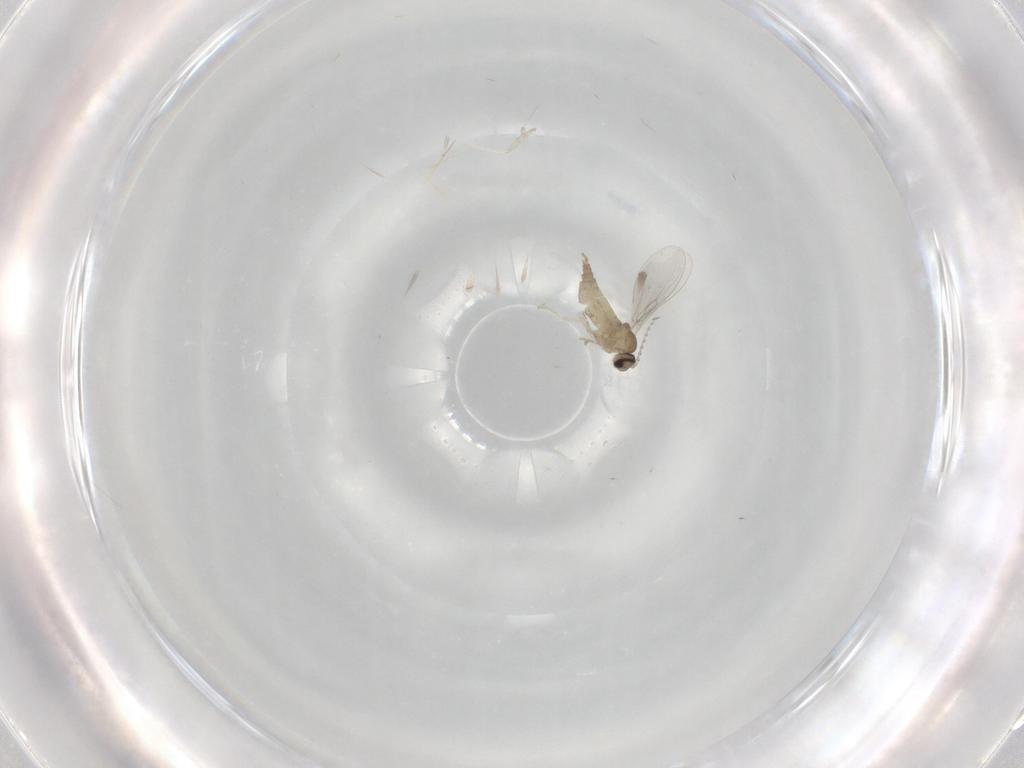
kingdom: Animalia
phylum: Arthropoda
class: Insecta
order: Diptera
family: Cecidomyiidae
